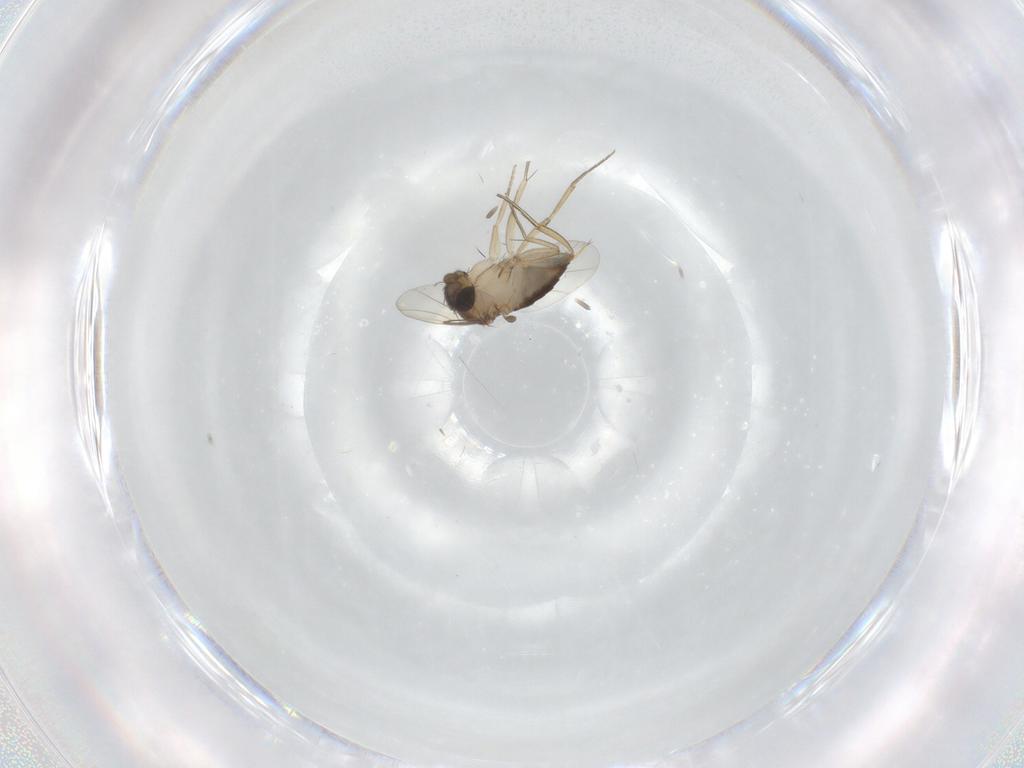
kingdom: Animalia
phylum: Arthropoda
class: Insecta
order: Diptera
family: Phoridae
